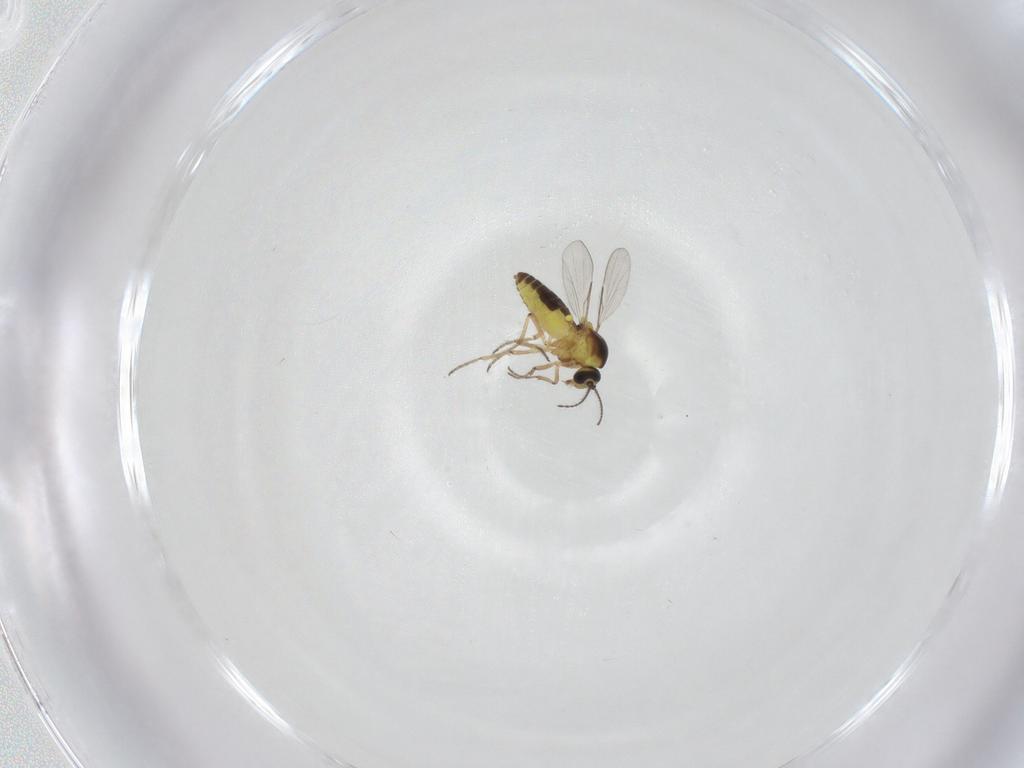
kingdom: Animalia
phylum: Arthropoda
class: Insecta
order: Diptera
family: Ceratopogonidae
